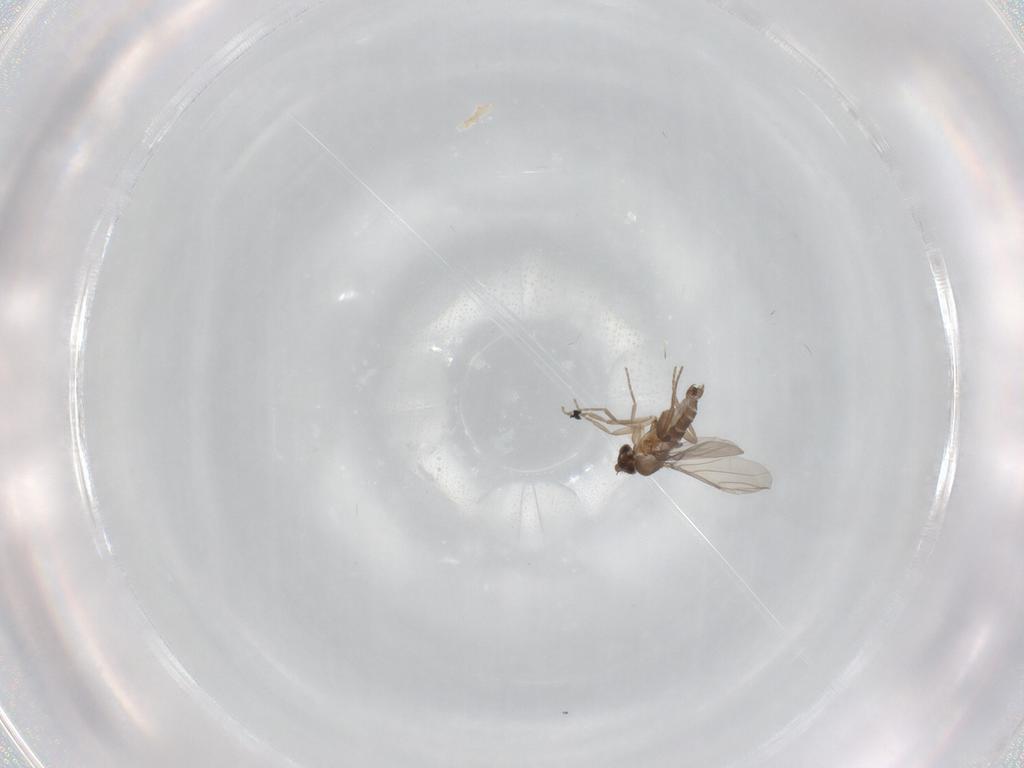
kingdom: Animalia
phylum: Arthropoda
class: Insecta
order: Diptera
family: Phoridae
